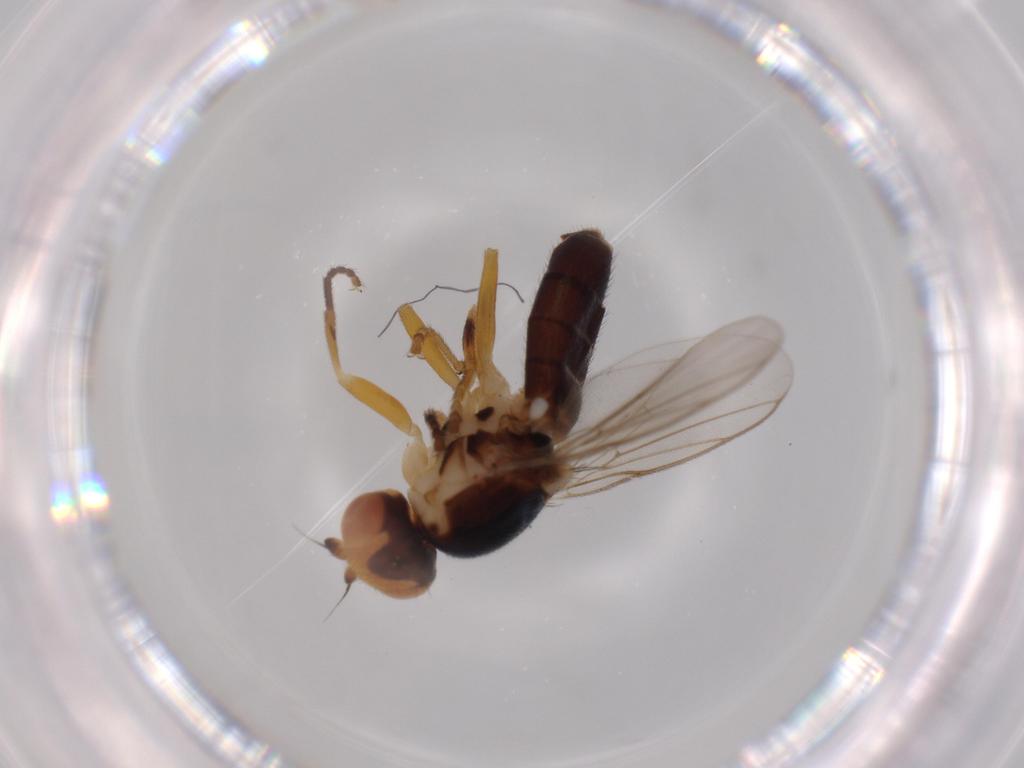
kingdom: Animalia
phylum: Arthropoda
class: Insecta
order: Diptera
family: Chloropidae
